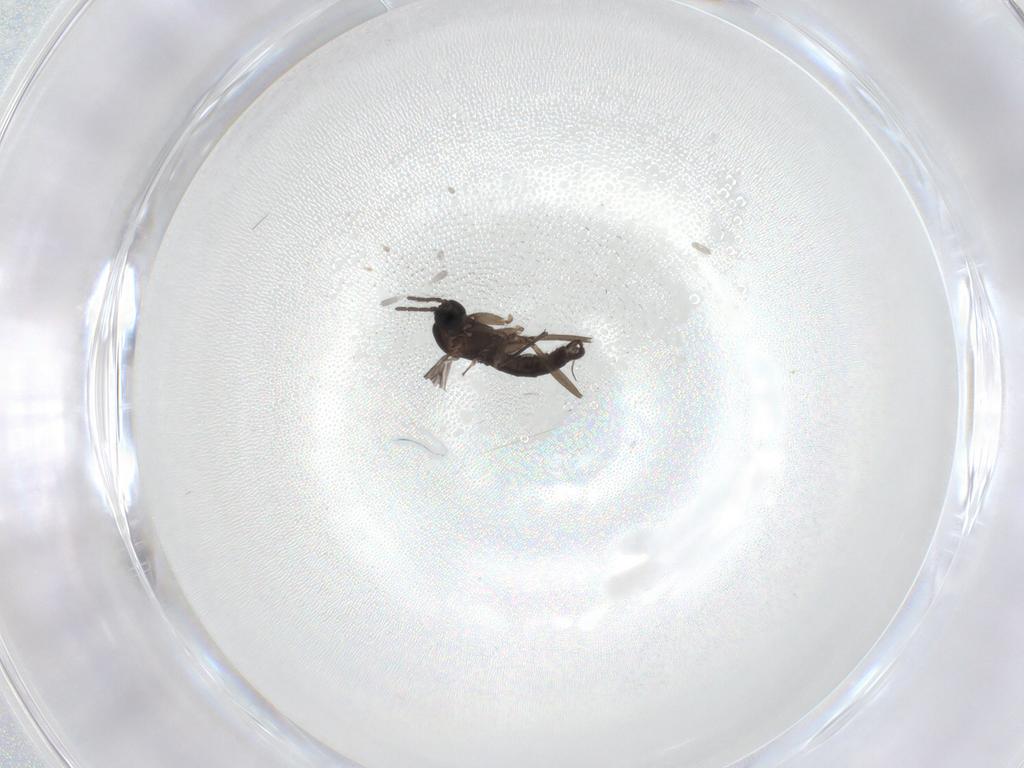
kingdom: Animalia
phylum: Arthropoda
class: Insecta
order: Diptera
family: Sciaridae
